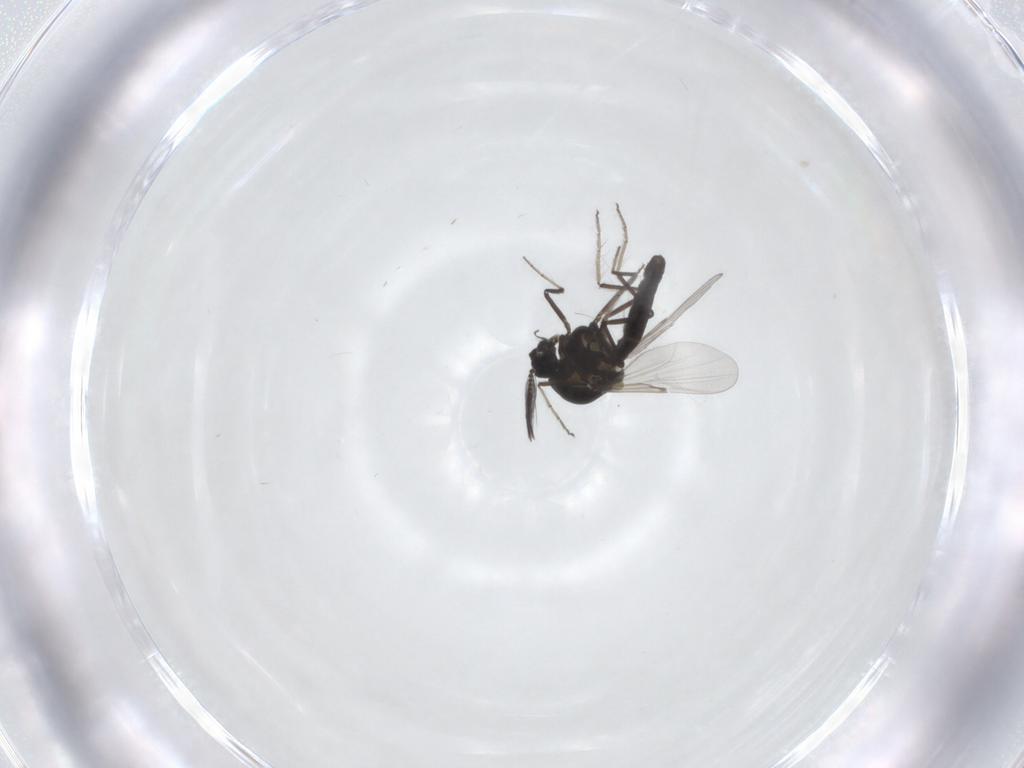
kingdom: Animalia
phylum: Arthropoda
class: Insecta
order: Diptera
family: Ceratopogonidae
